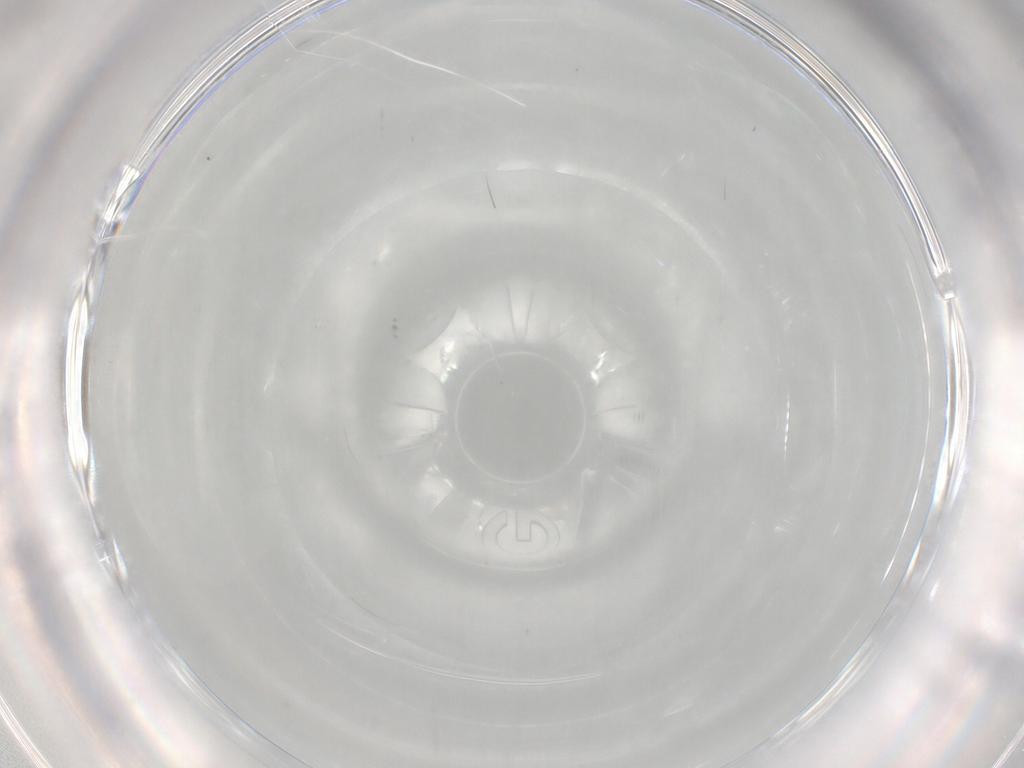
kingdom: Animalia
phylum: Arthropoda
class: Insecta
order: Diptera
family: Muscidae
